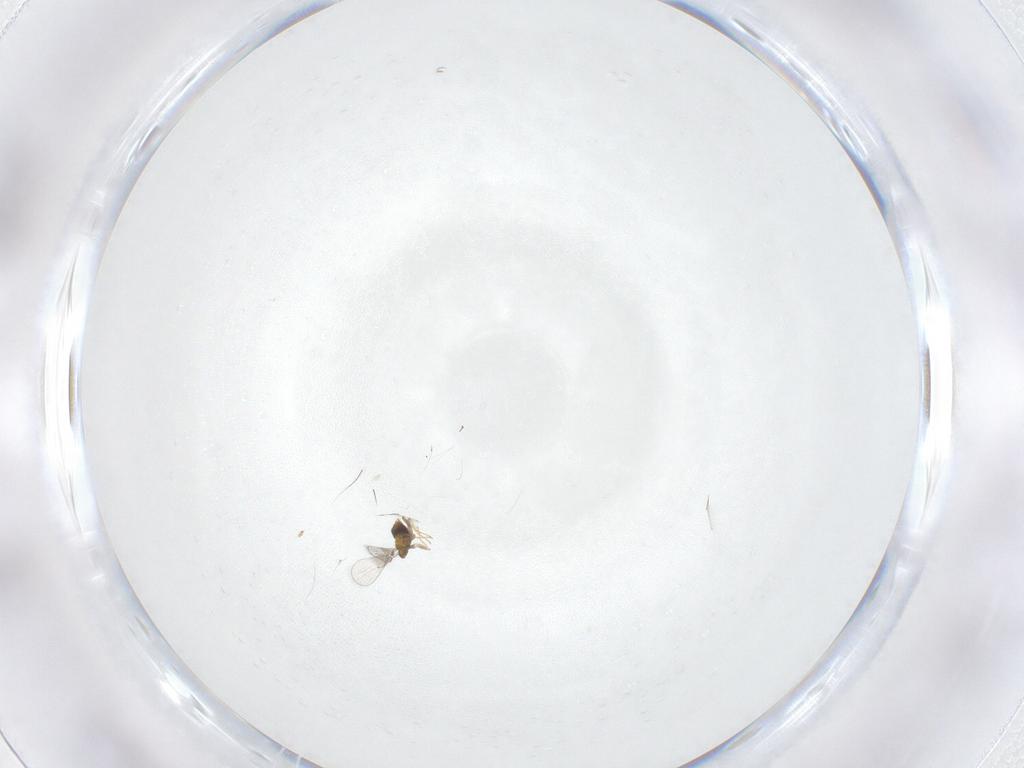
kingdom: Animalia
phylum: Arthropoda
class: Insecta
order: Hymenoptera
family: Trichogrammatidae
